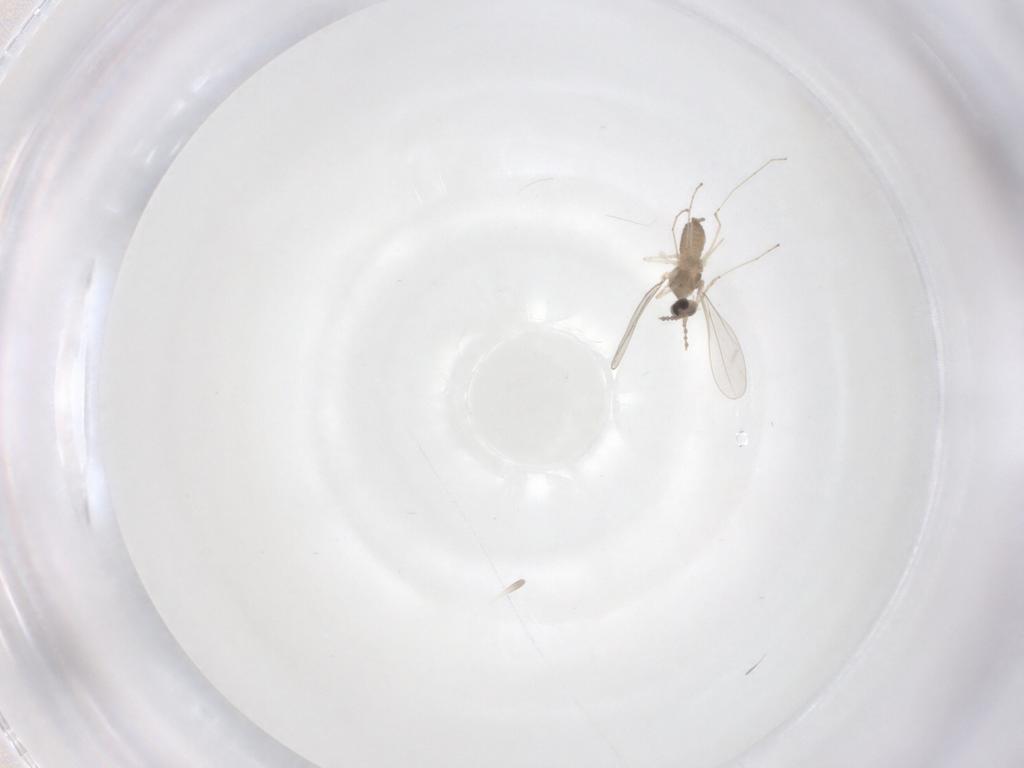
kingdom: Animalia
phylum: Arthropoda
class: Insecta
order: Diptera
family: Cecidomyiidae
